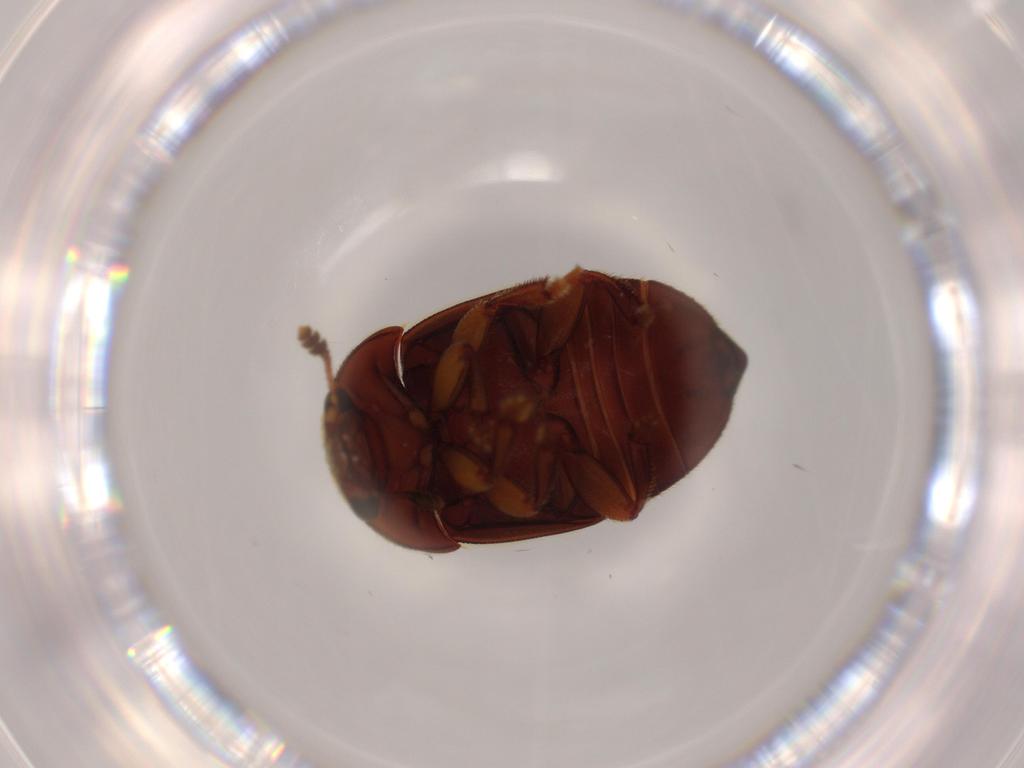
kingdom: Animalia
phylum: Arthropoda
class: Insecta
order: Coleoptera
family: Nitidulidae
